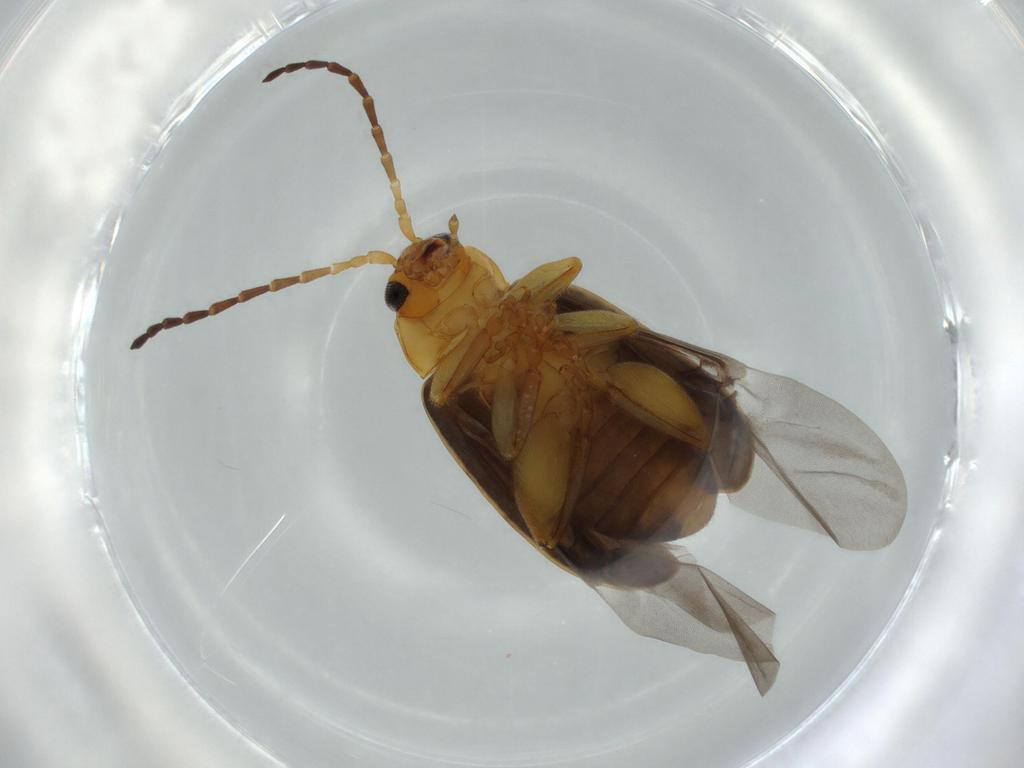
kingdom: Animalia
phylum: Arthropoda
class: Insecta
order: Coleoptera
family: Chrysomelidae
